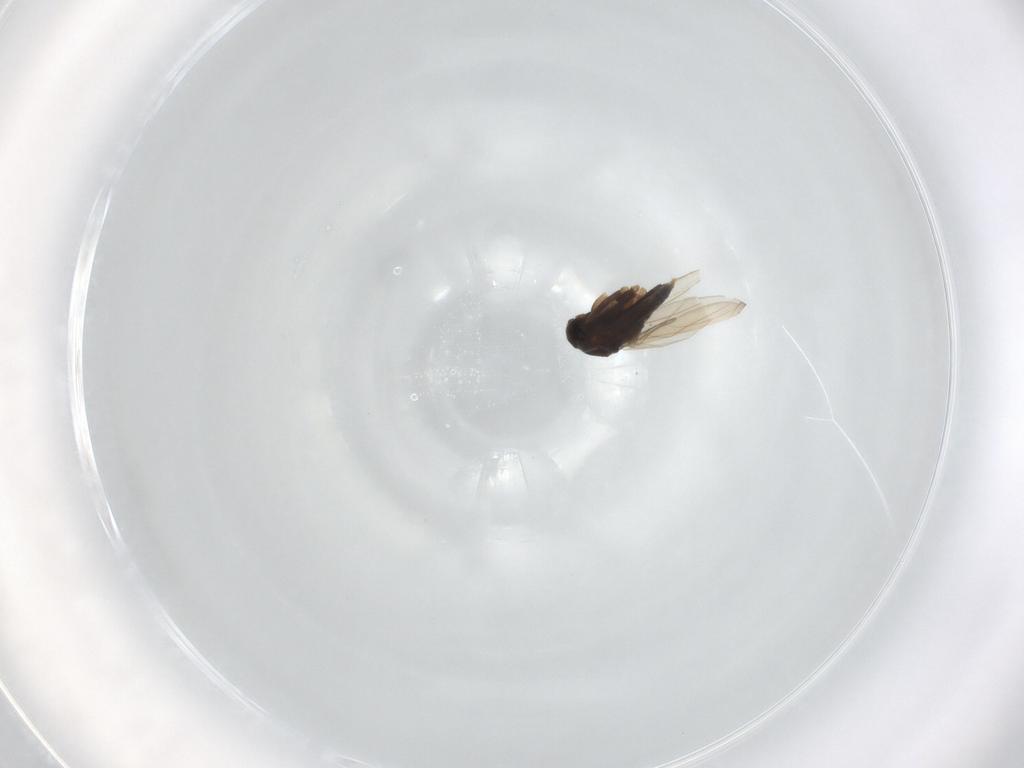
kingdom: Animalia
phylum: Arthropoda
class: Insecta
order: Diptera
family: Phoridae
